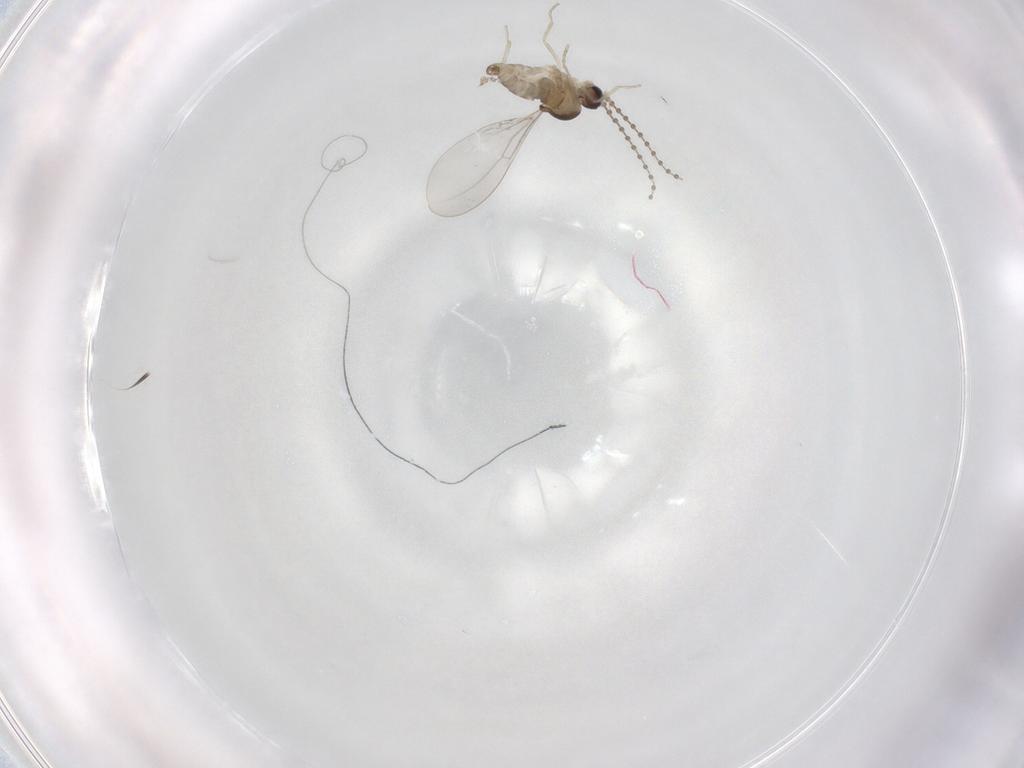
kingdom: Animalia
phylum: Arthropoda
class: Insecta
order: Diptera
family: Cecidomyiidae
